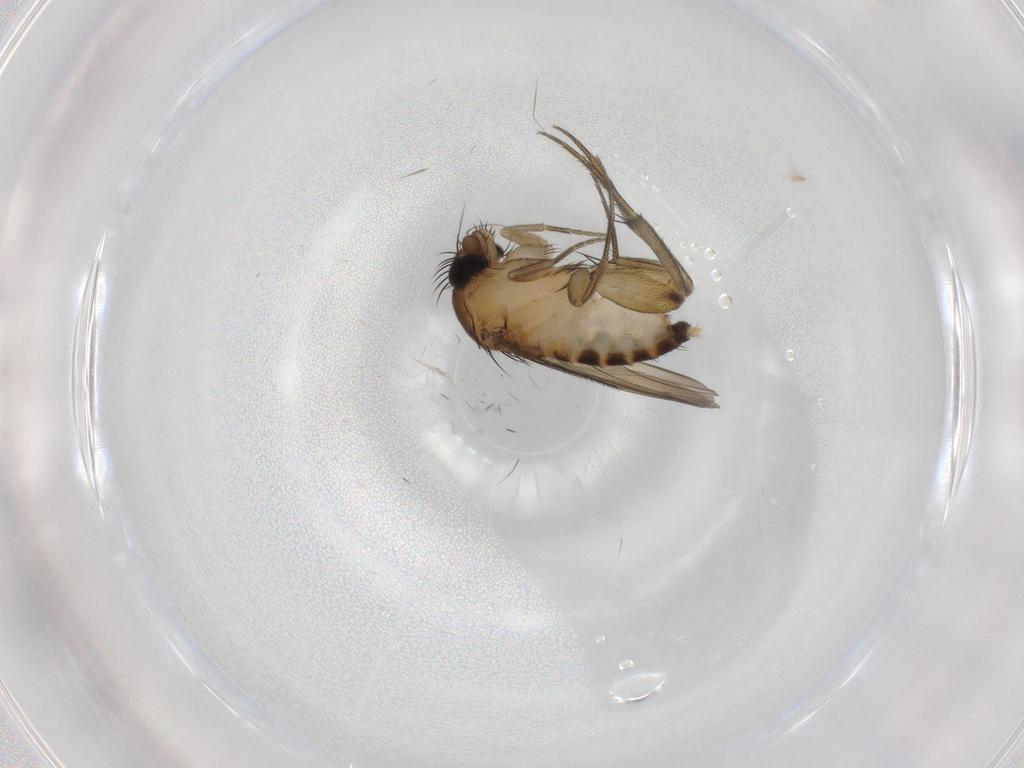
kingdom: Animalia
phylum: Arthropoda
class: Insecta
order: Diptera
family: Phoridae
